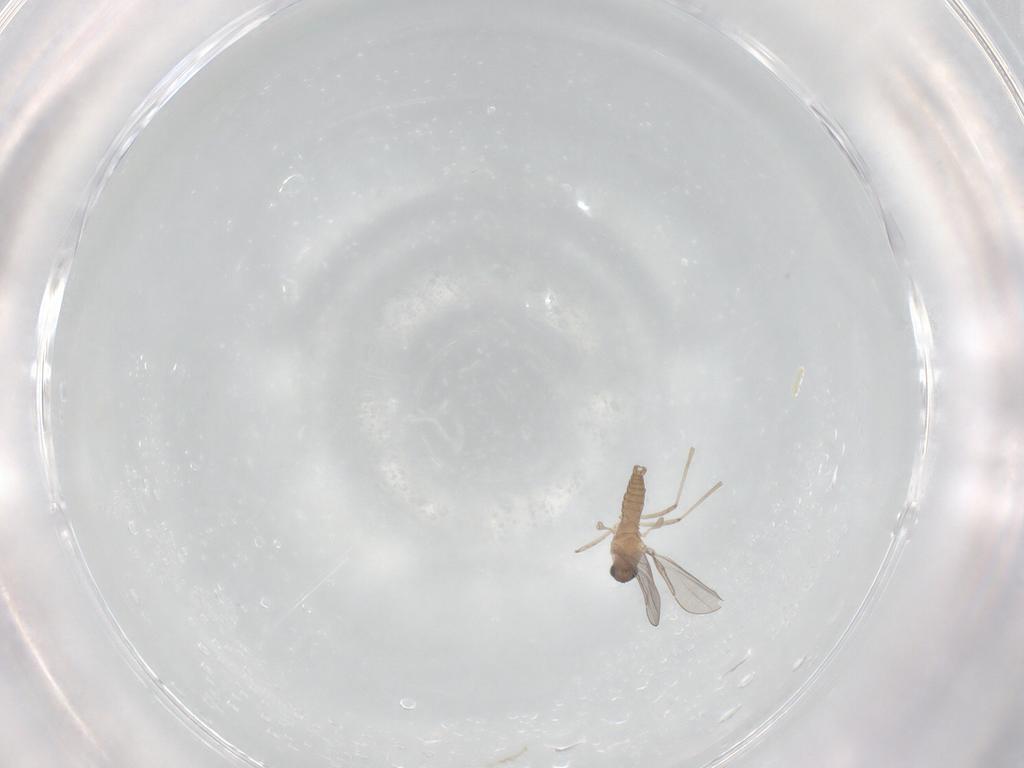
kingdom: Animalia
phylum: Arthropoda
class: Insecta
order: Diptera
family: Cecidomyiidae
